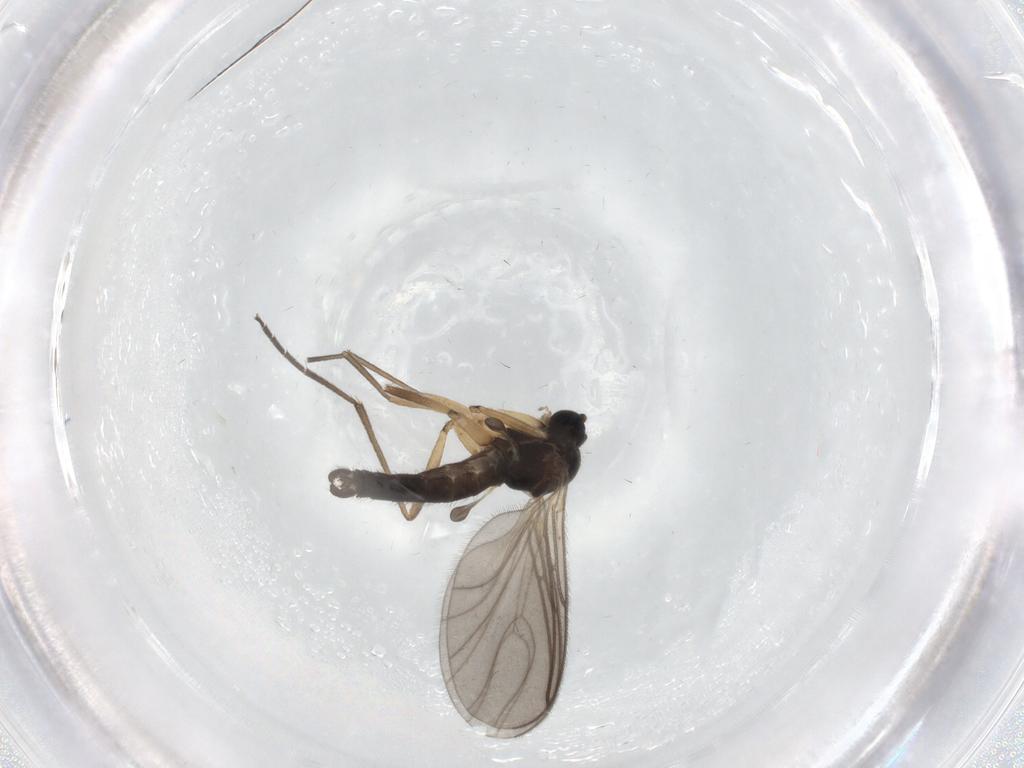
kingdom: Animalia
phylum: Arthropoda
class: Insecta
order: Diptera
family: Sciaridae
